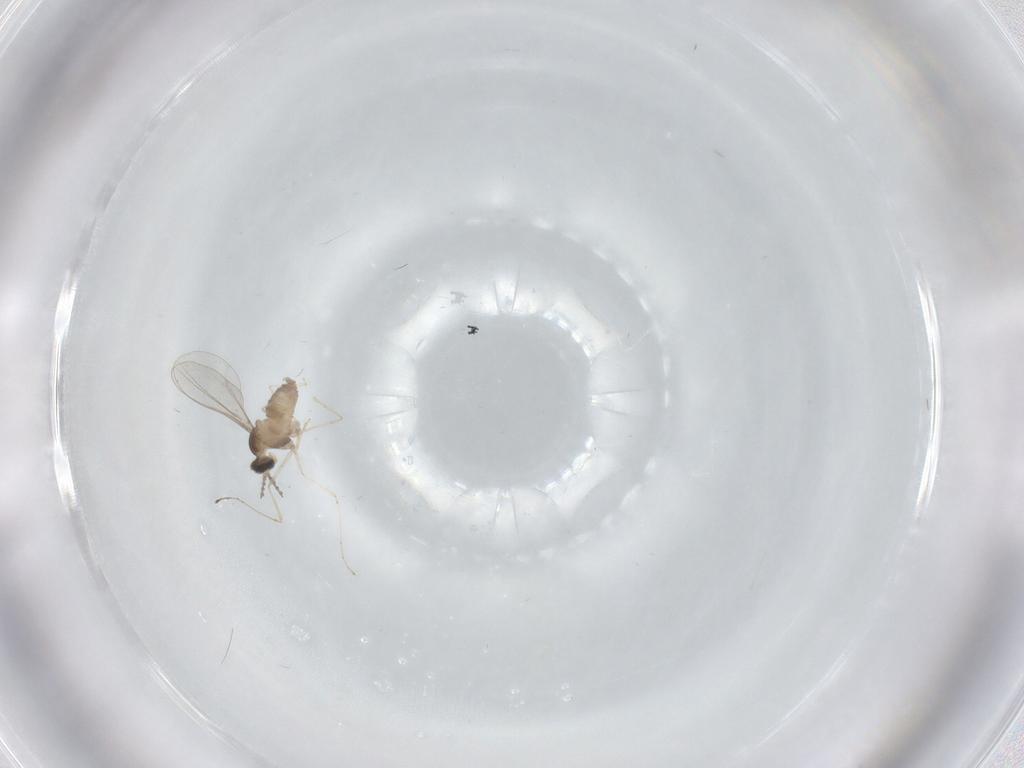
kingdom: Animalia
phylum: Arthropoda
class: Insecta
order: Diptera
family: Cecidomyiidae
